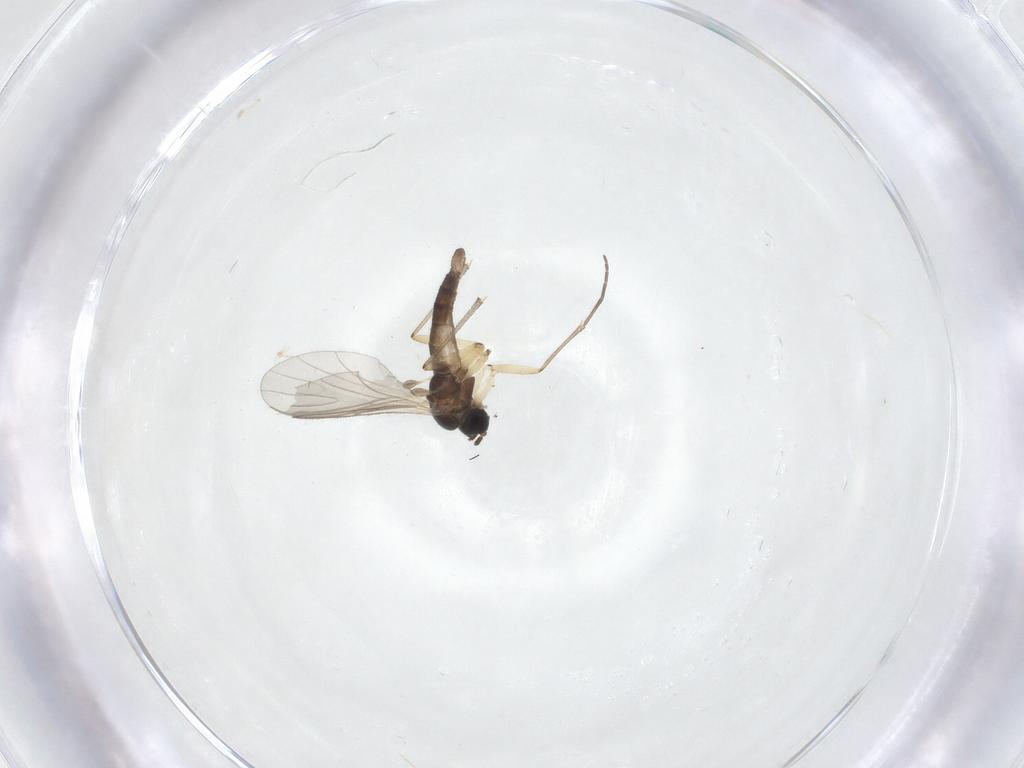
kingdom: Animalia
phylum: Arthropoda
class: Insecta
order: Diptera
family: Sciaridae
